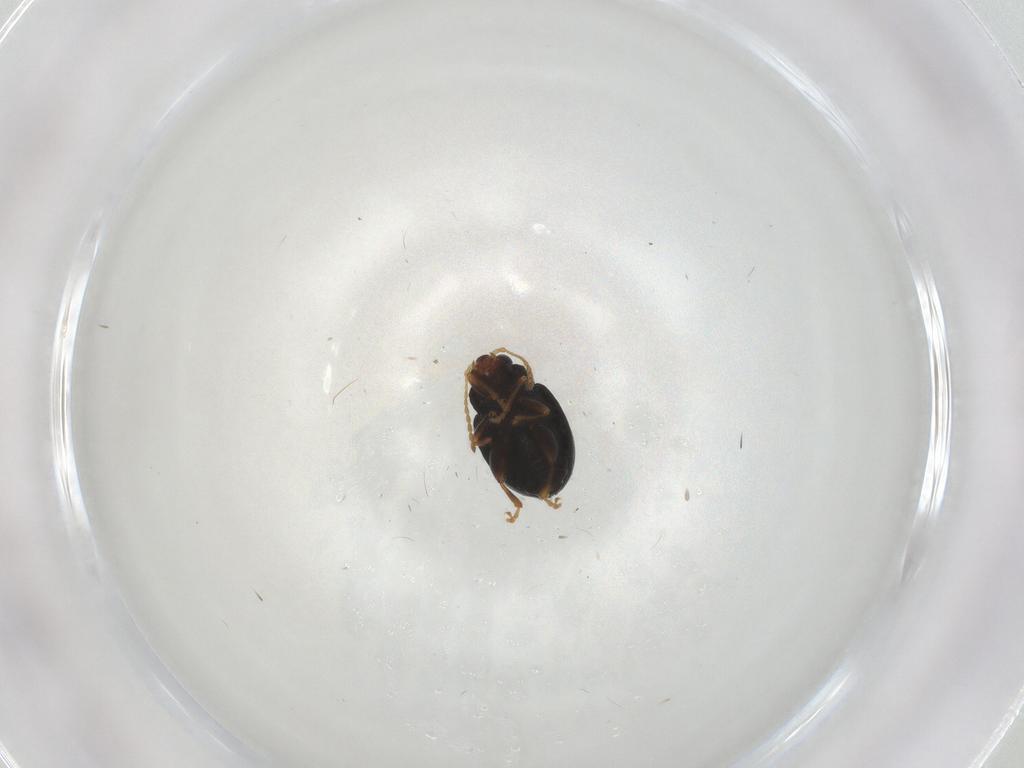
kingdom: Animalia
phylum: Arthropoda
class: Insecta
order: Coleoptera
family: Chrysomelidae
